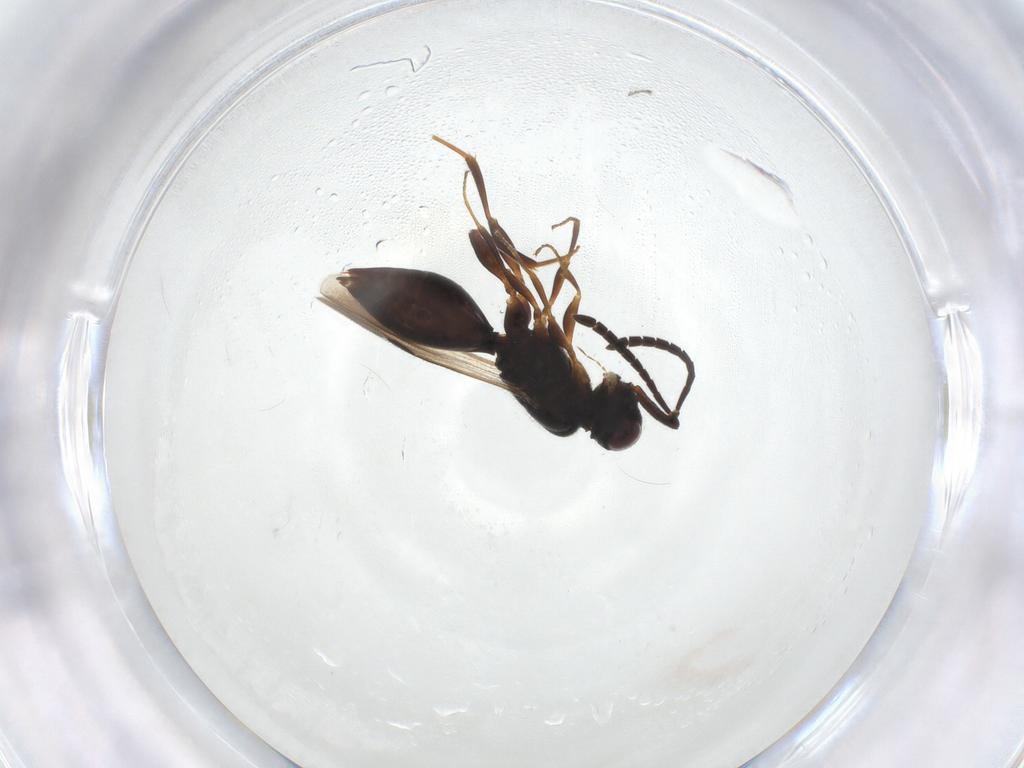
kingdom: Animalia
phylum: Arthropoda
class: Insecta
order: Hymenoptera
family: Megaspilidae
